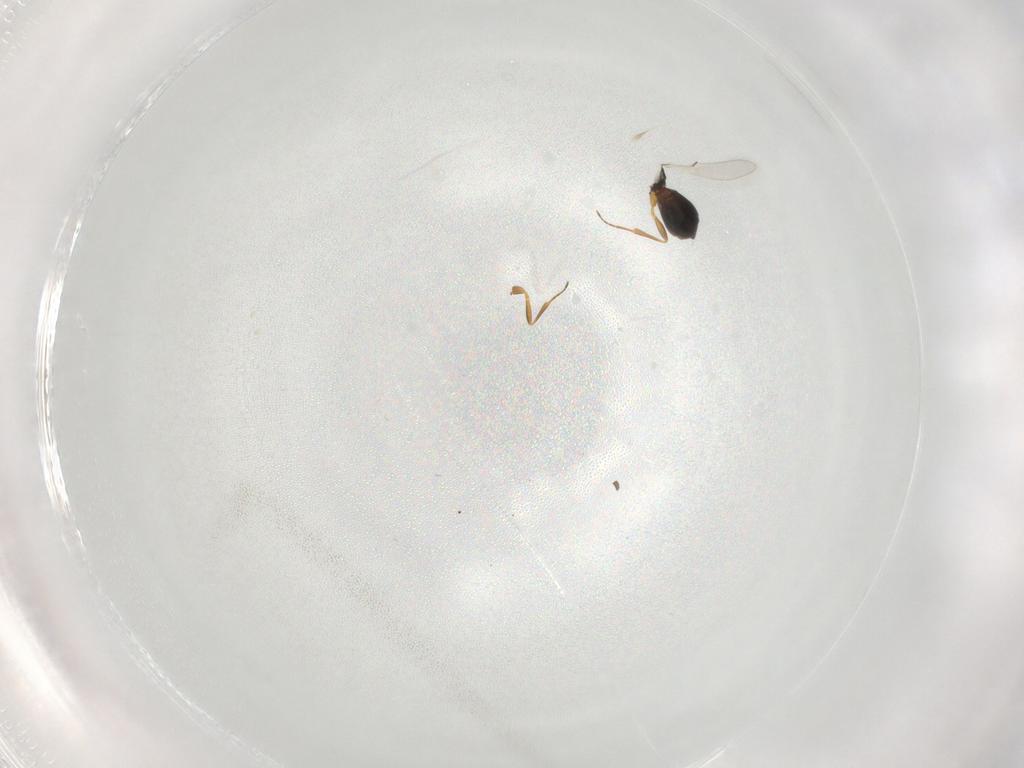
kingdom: Animalia
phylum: Arthropoda
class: Insecta
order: Hymenoptera
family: Scelionidae
